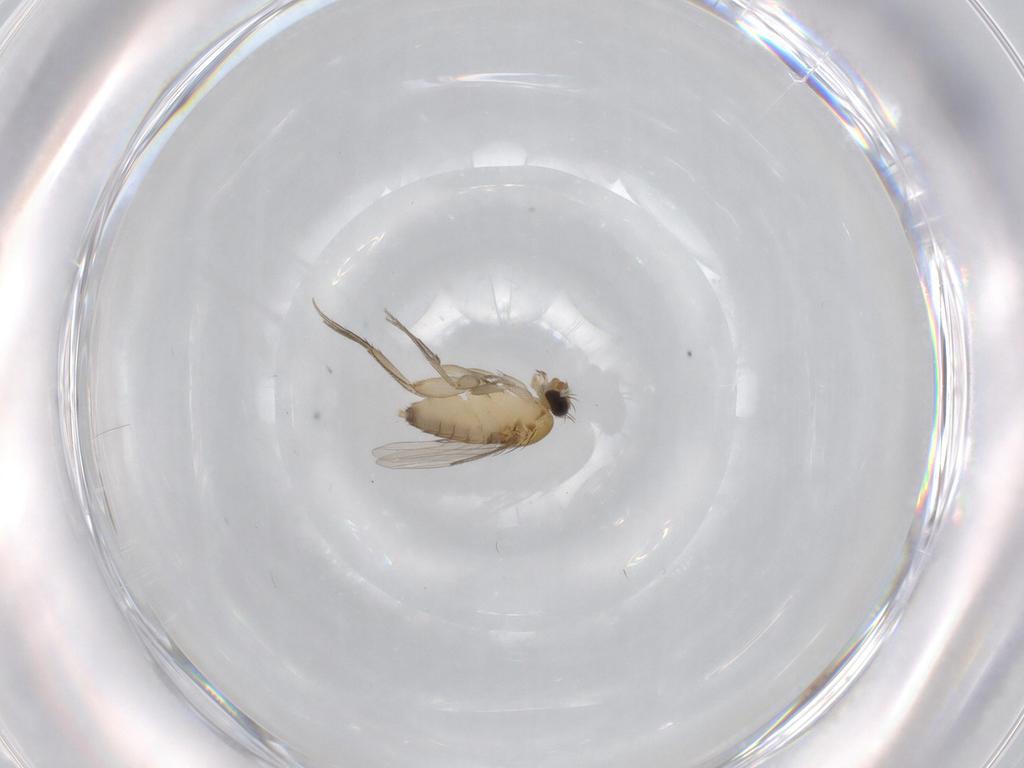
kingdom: Animalia
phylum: Arthropoda
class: Insecta
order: Diptera
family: Phoridae
